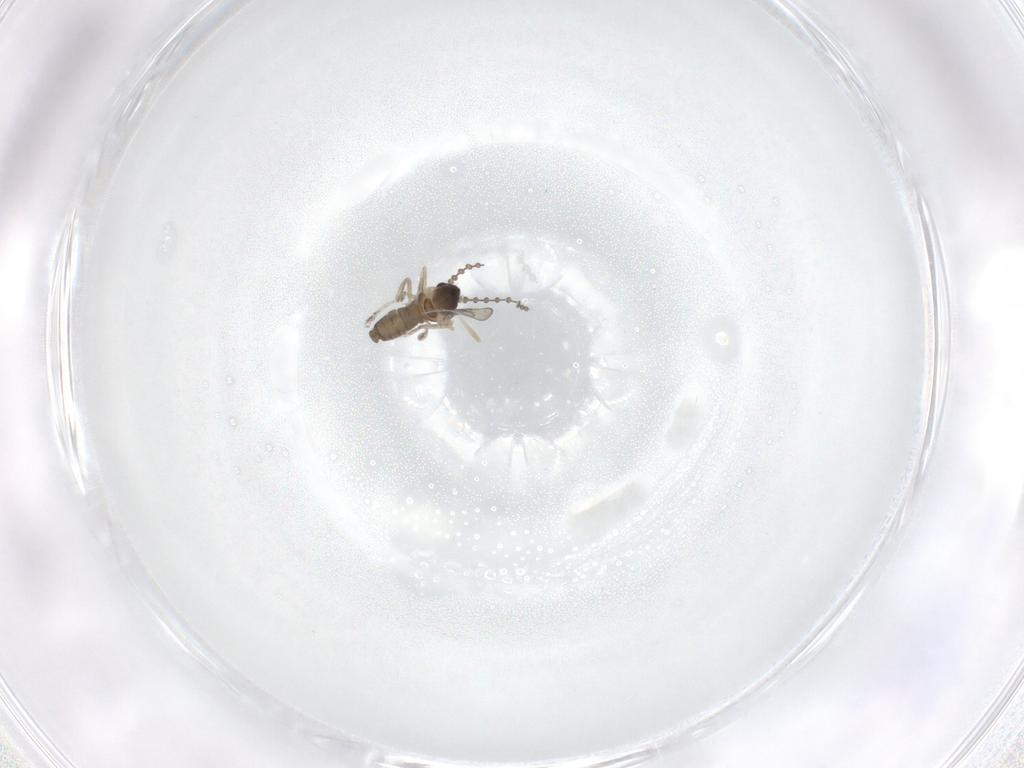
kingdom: Animalia
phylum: Arthropoda
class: Insecta
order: Diptera
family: Cecidomyiidae
